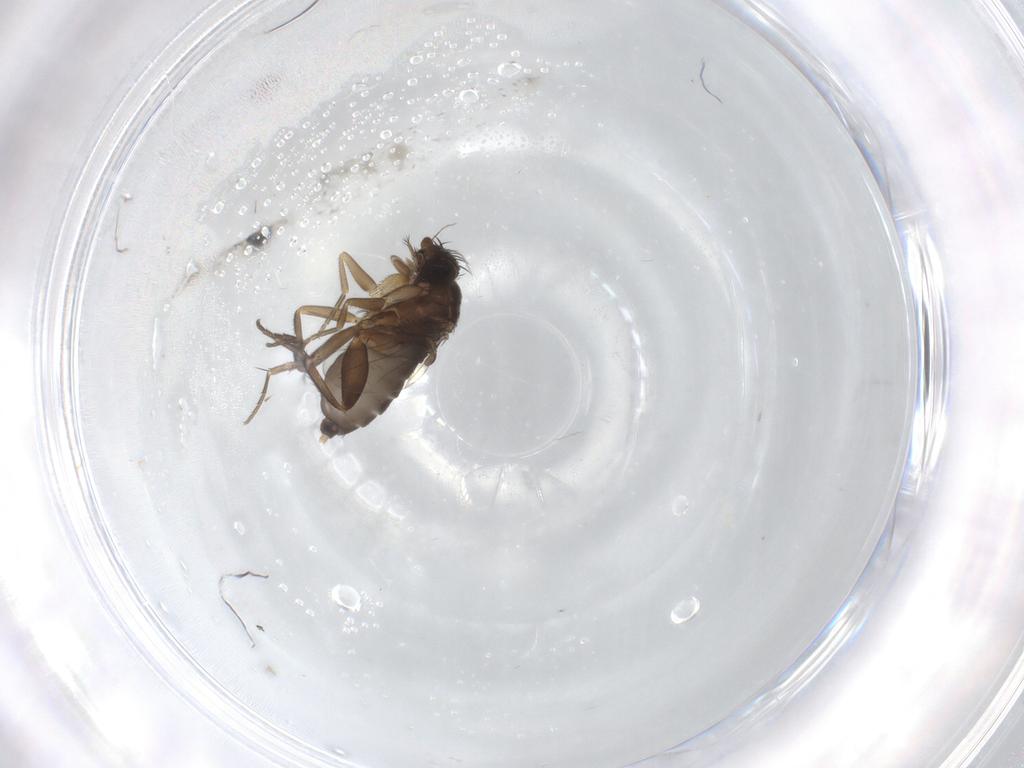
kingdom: Animalia
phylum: Arthropoda
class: Insecta
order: Diptera
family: Phoridae
